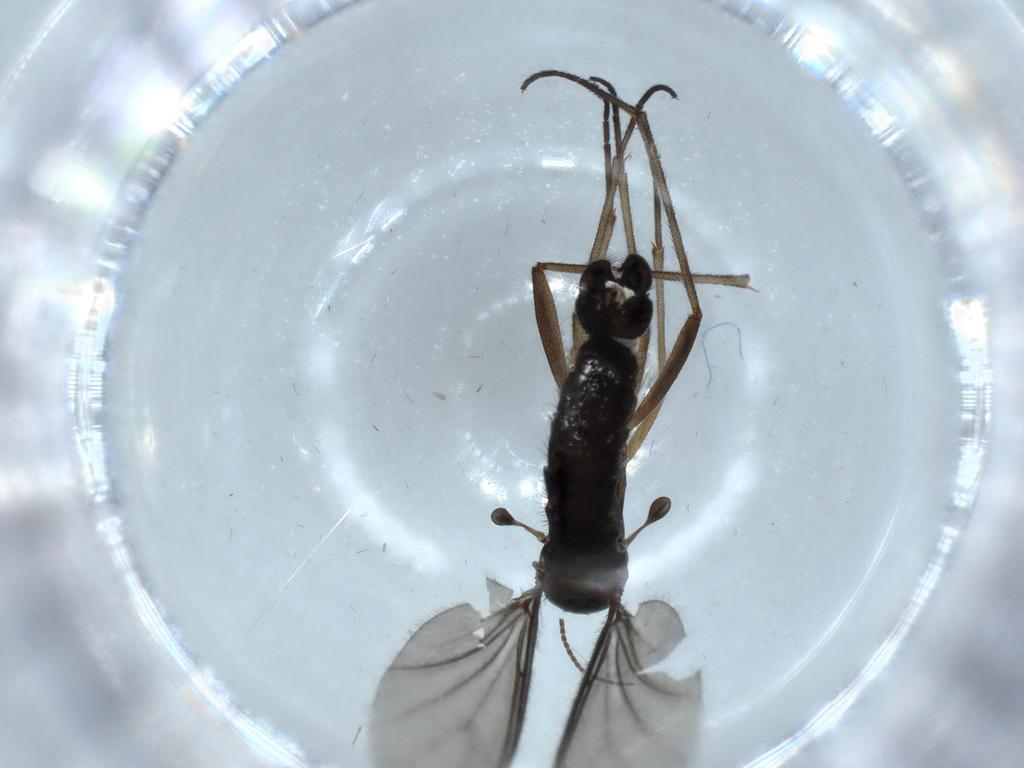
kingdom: Animalia
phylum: Arthropoda
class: Insecta
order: Diptera
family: Sciaridae
